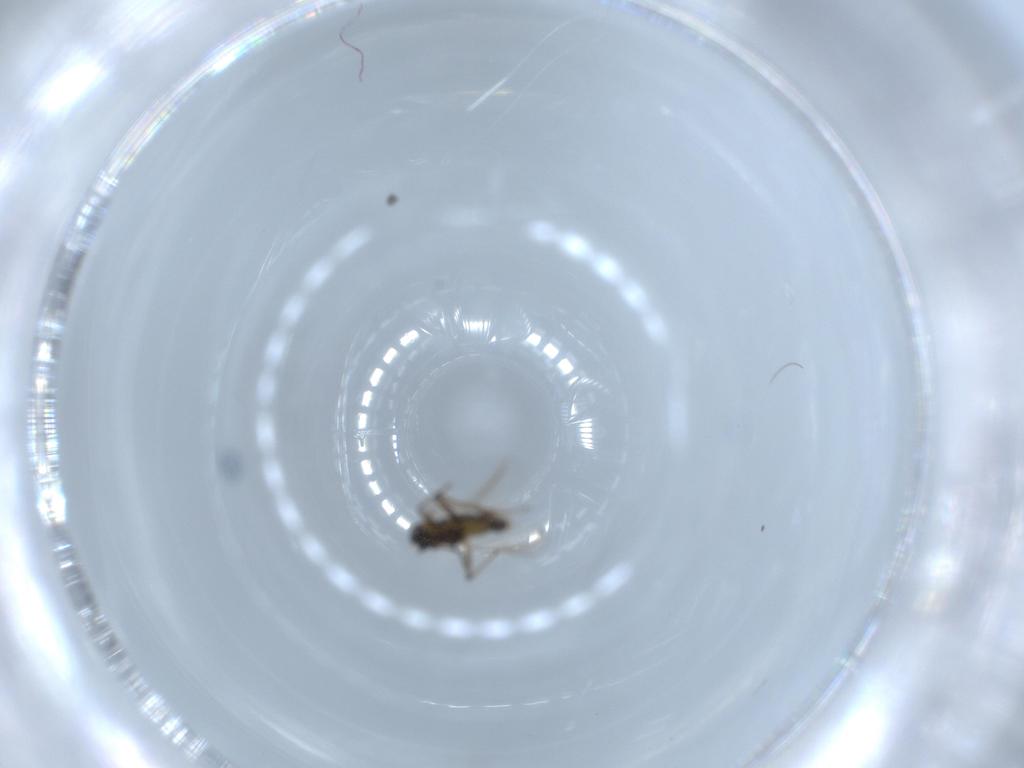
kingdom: Animalia
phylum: Arthropoda
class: Insecta
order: Diptera
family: Chironomidae
